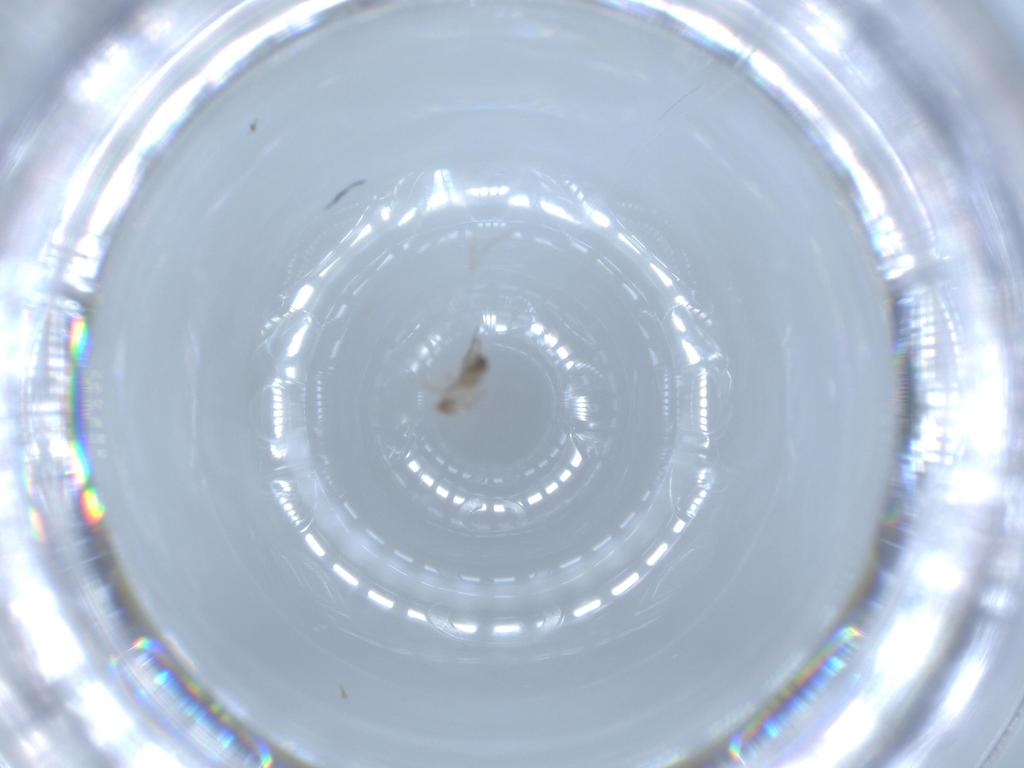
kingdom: Animalia
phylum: Arthropoda
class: Insecta
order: Diptera
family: Cecidomyiidae
